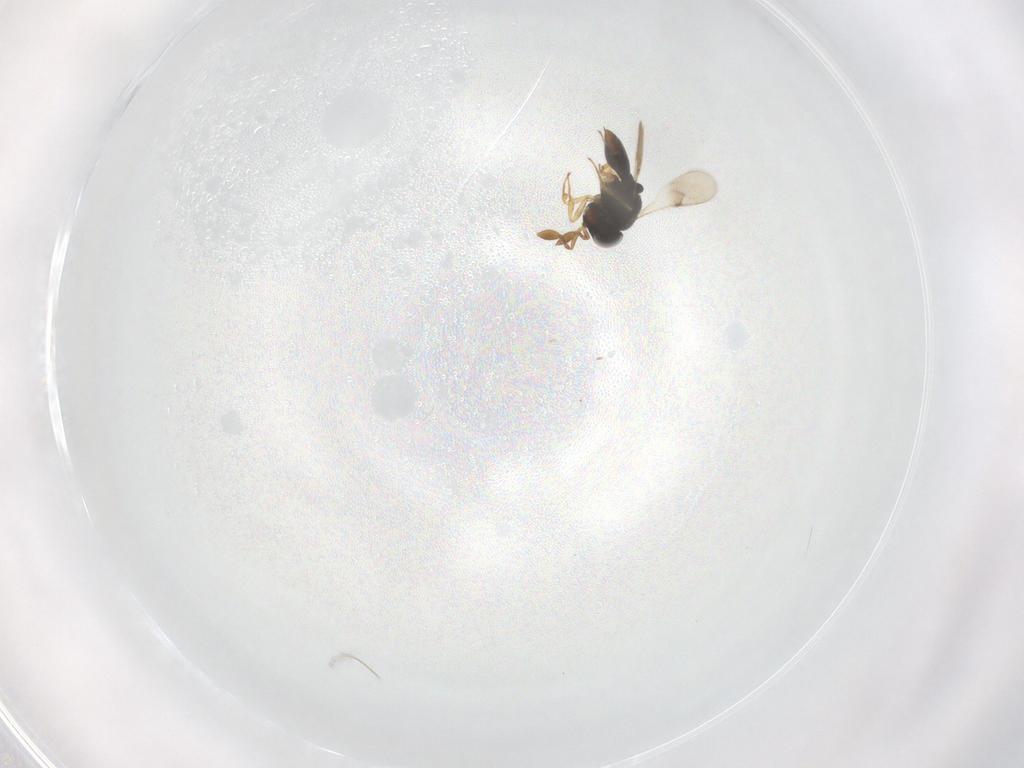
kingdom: Animalia
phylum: Arthropoda
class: Insecta
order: Hymenoptera
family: Scelionidae
